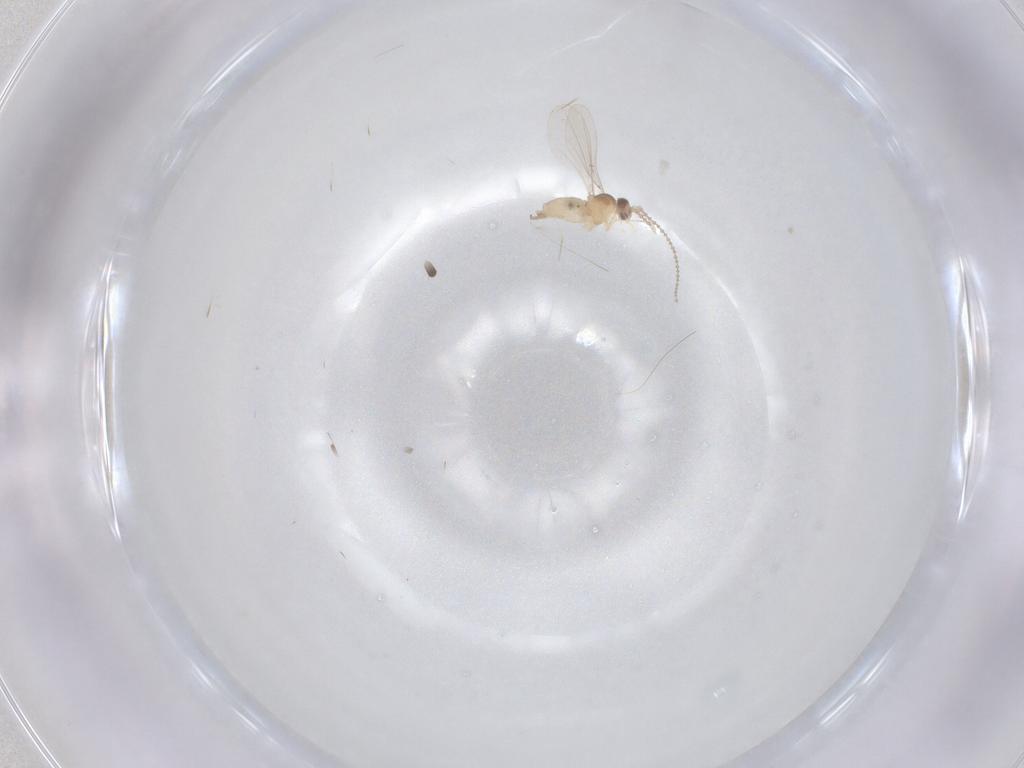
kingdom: Animalia
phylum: Arthropoda
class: Insecta
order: Diptera
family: Cecidomyiidae
